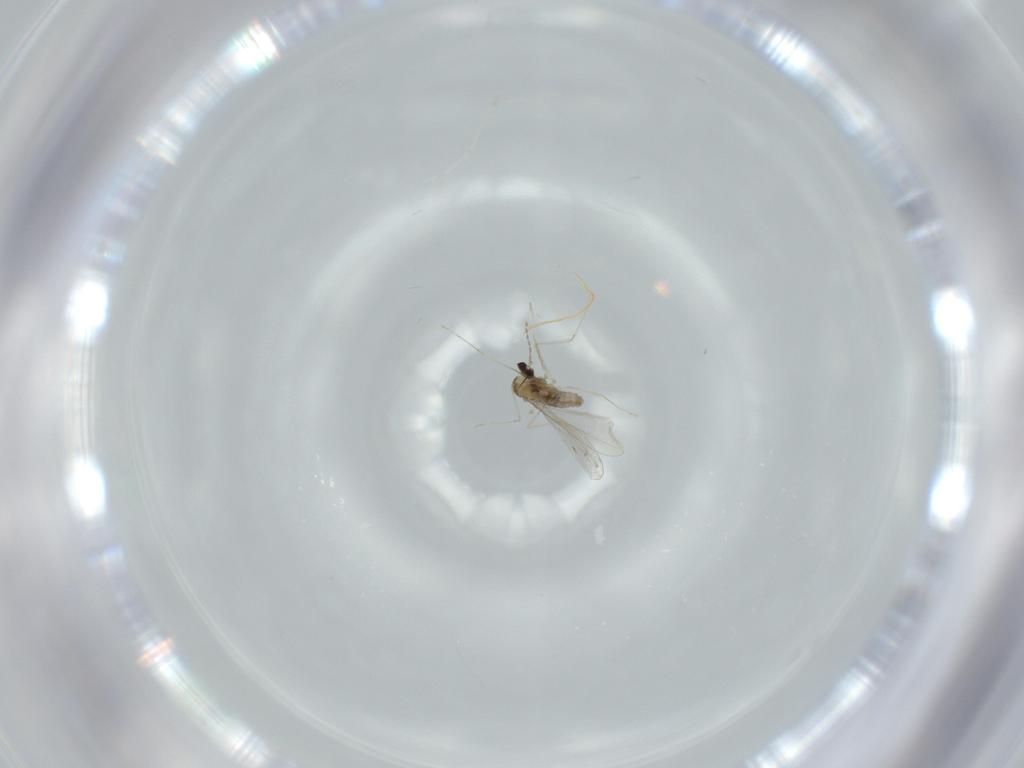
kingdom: Animalia
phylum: Arthropoda
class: Insecta
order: Diptera
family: Cecidomyiidae
